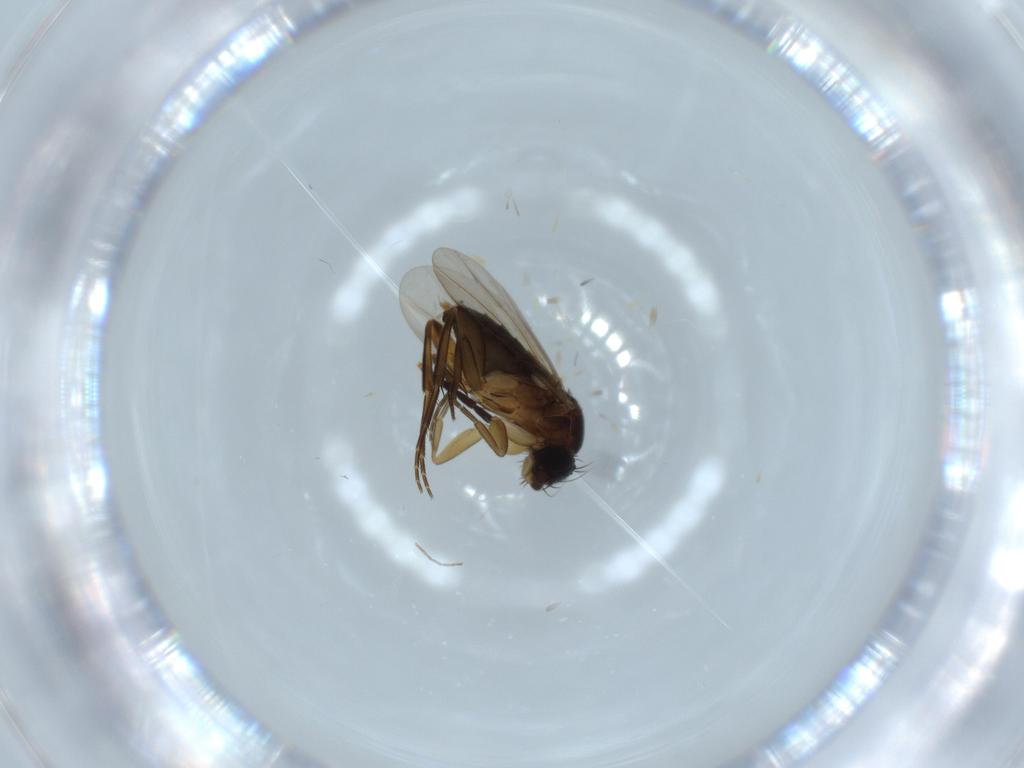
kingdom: Animalia
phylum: Arthropoda
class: Insecta
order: Diptera
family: Phoridae
